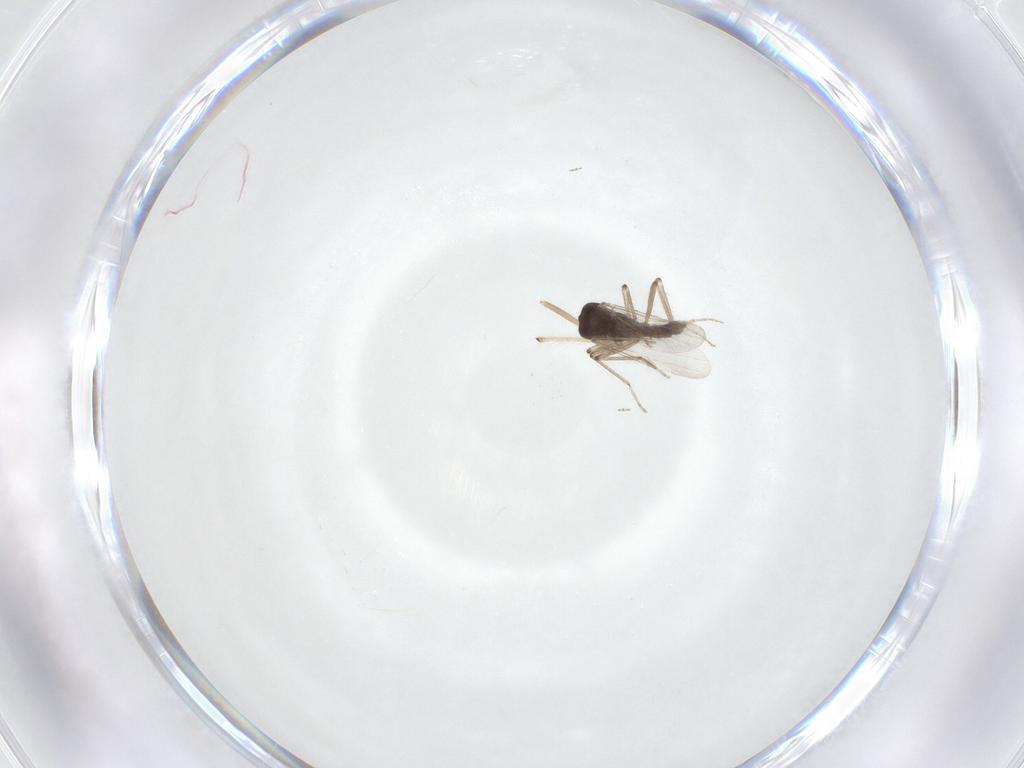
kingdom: Animalia
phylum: Arthropoda
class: Insecta
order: Diptera
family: Ceratopogonidae
